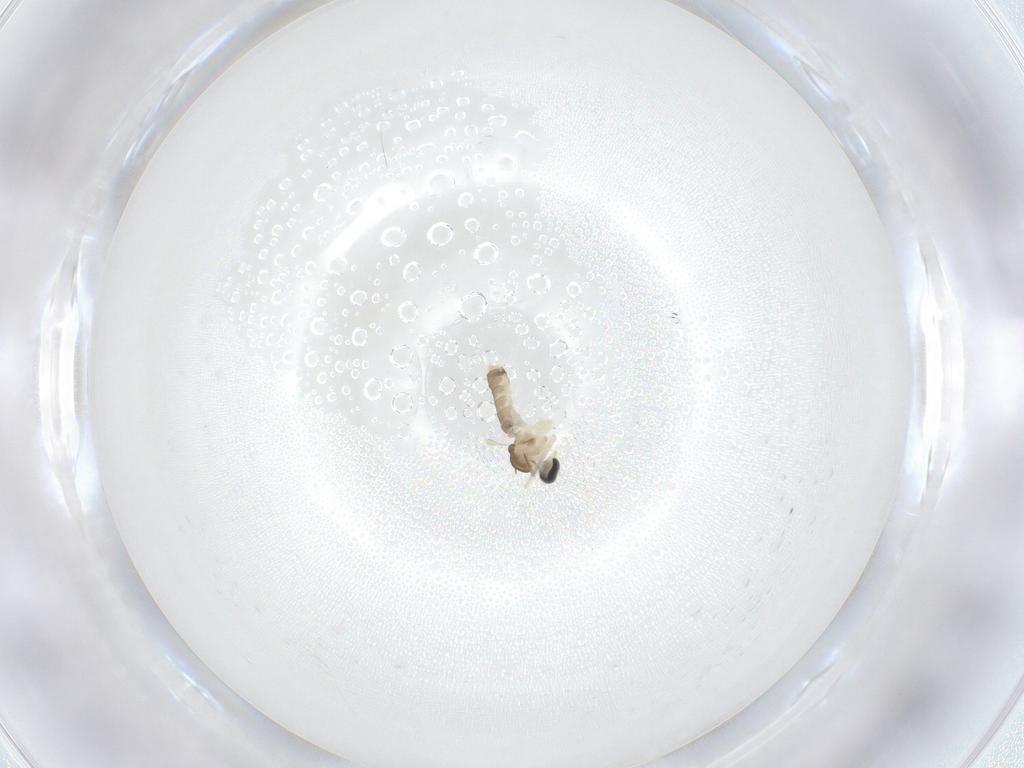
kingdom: Animalia
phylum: Arthropoda
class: Insecta
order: Diptera
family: Cecidomyiidae
